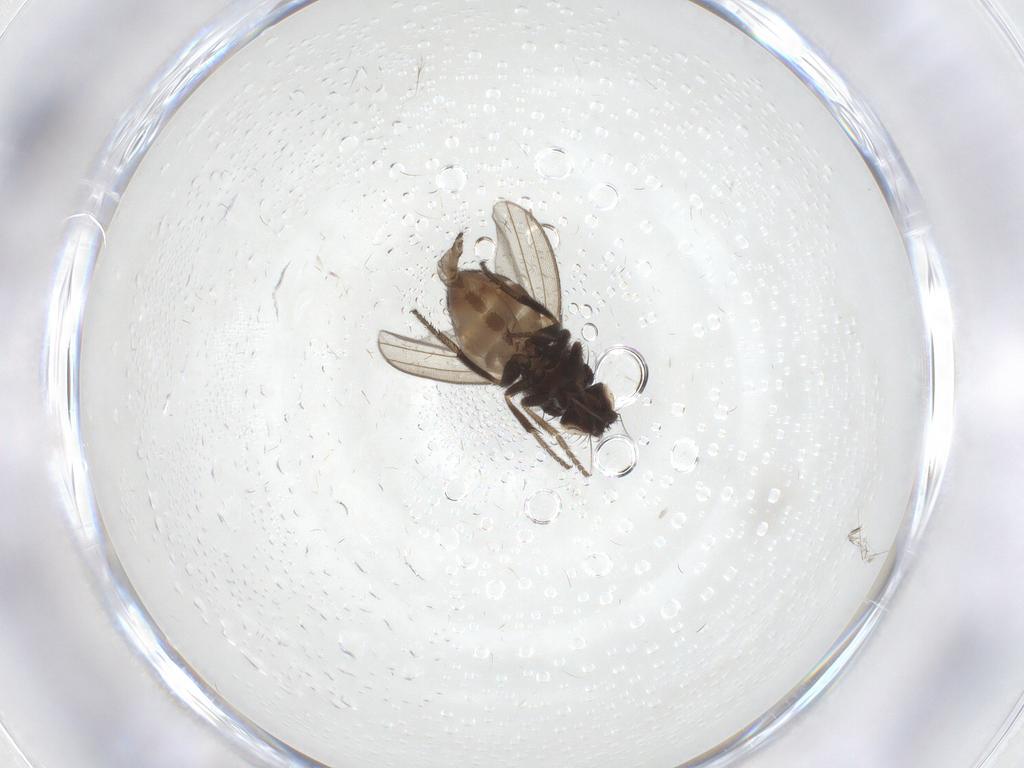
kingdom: Animalia
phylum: Arthropoda
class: Insecta
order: Diptera
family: Milichiidae
